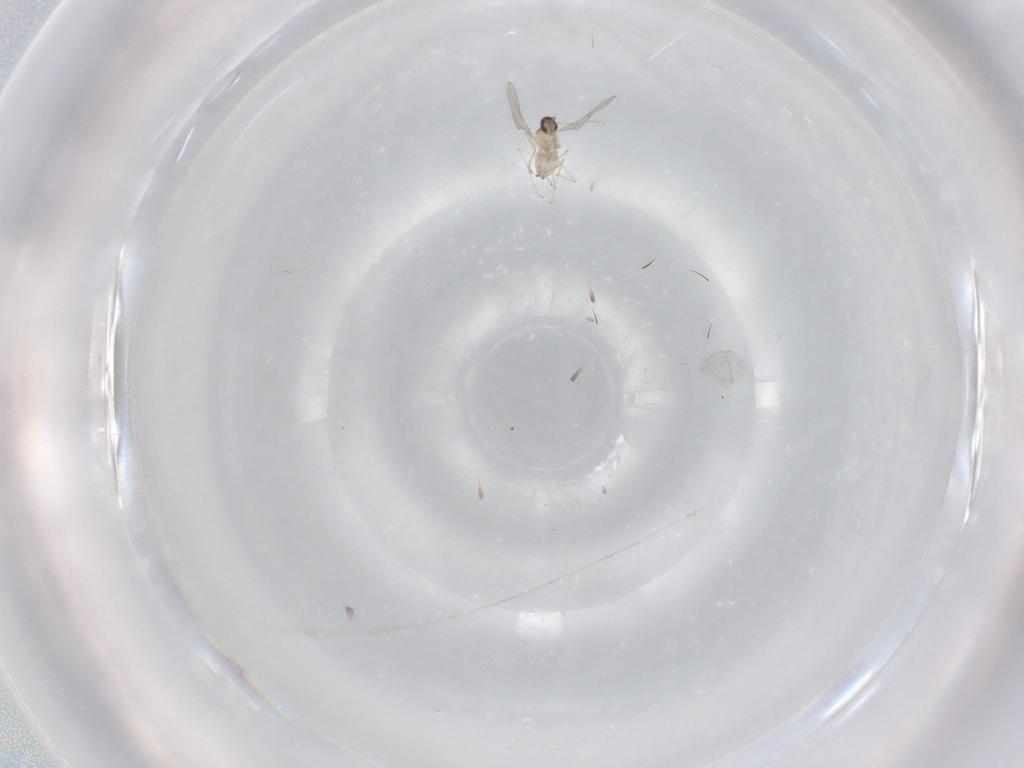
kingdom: Animalia
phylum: Arthropoda
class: Insecta
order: Diptera
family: Cecidomyiidae
